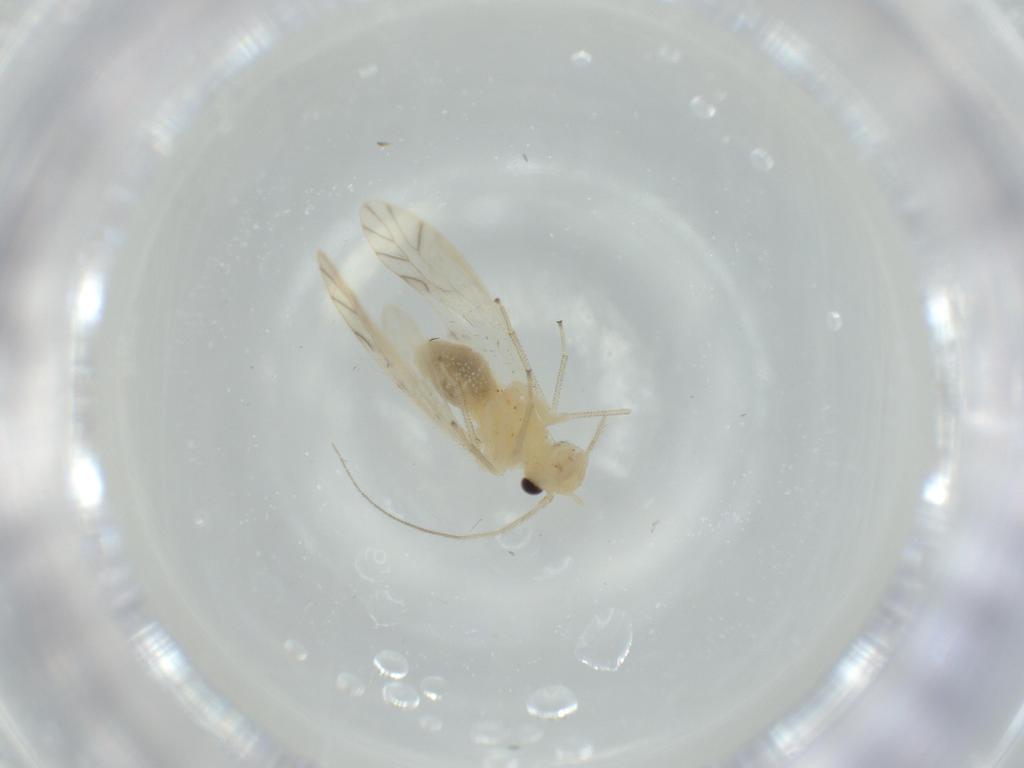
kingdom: Animalia
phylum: Arthropoda
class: Insecta
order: Psocodea
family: Caeciliusidae
